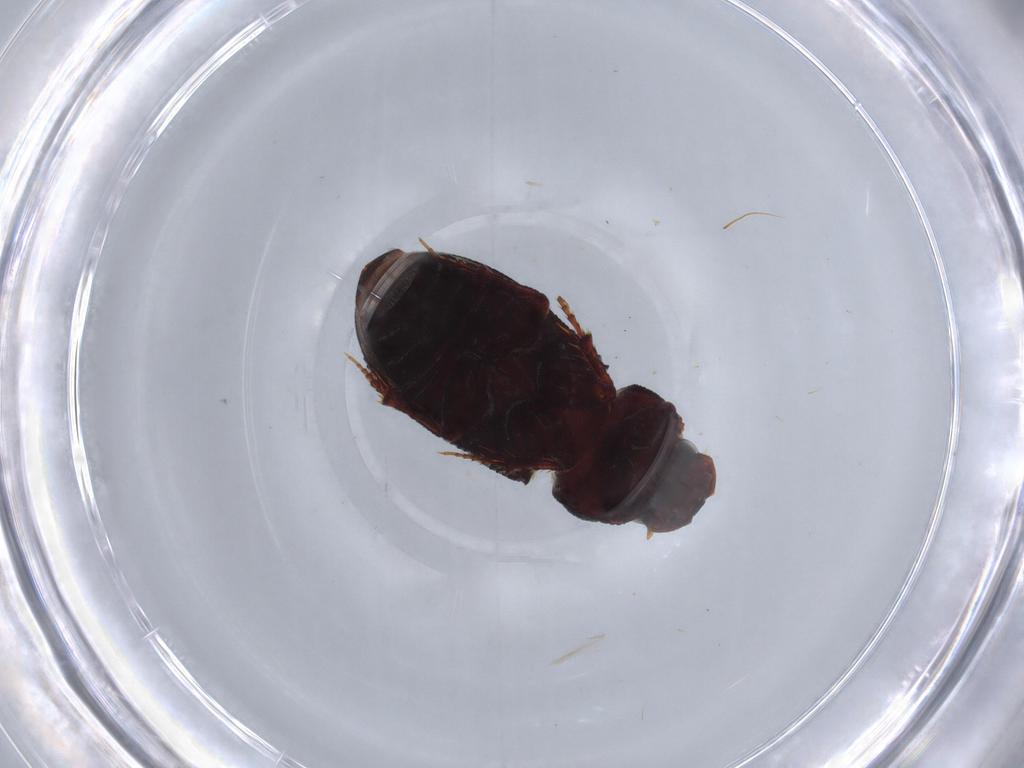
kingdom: Animalia
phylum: Arthropoda
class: Insecta
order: Coleoptera
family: Scarabaeidae
